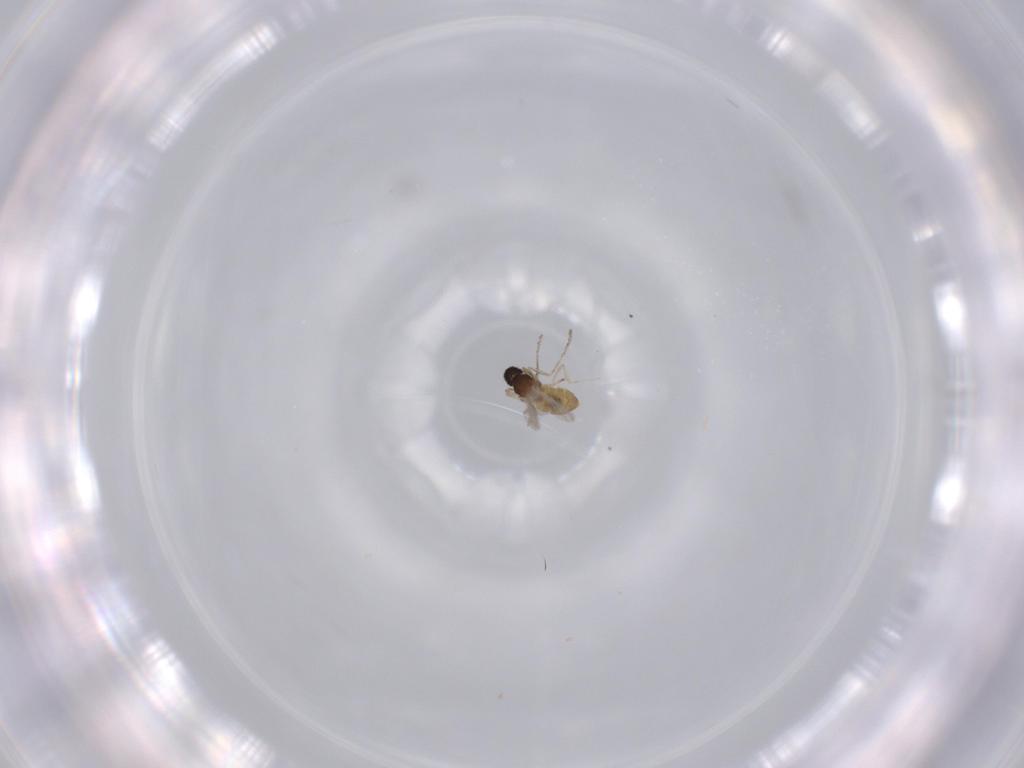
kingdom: Animalia
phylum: Arthropoda
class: Insecta
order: Diptera
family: Cecidomyiidae
